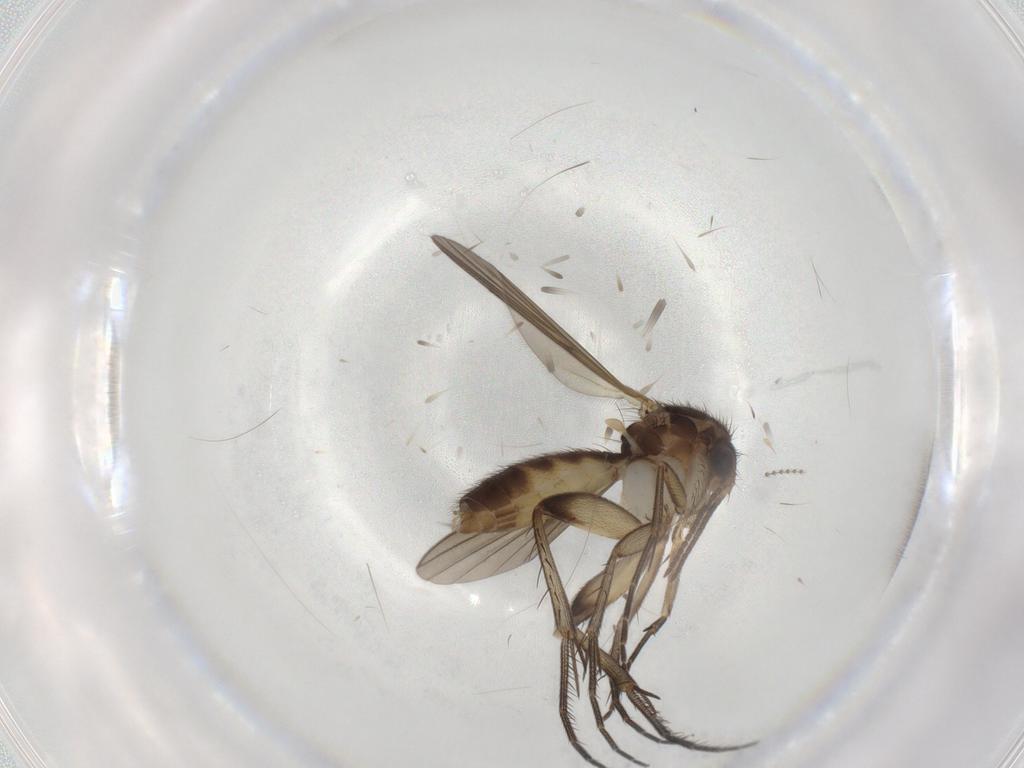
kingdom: Animalia
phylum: Arthropoda
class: Insecta
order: Diptera
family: Mycetophilidae
